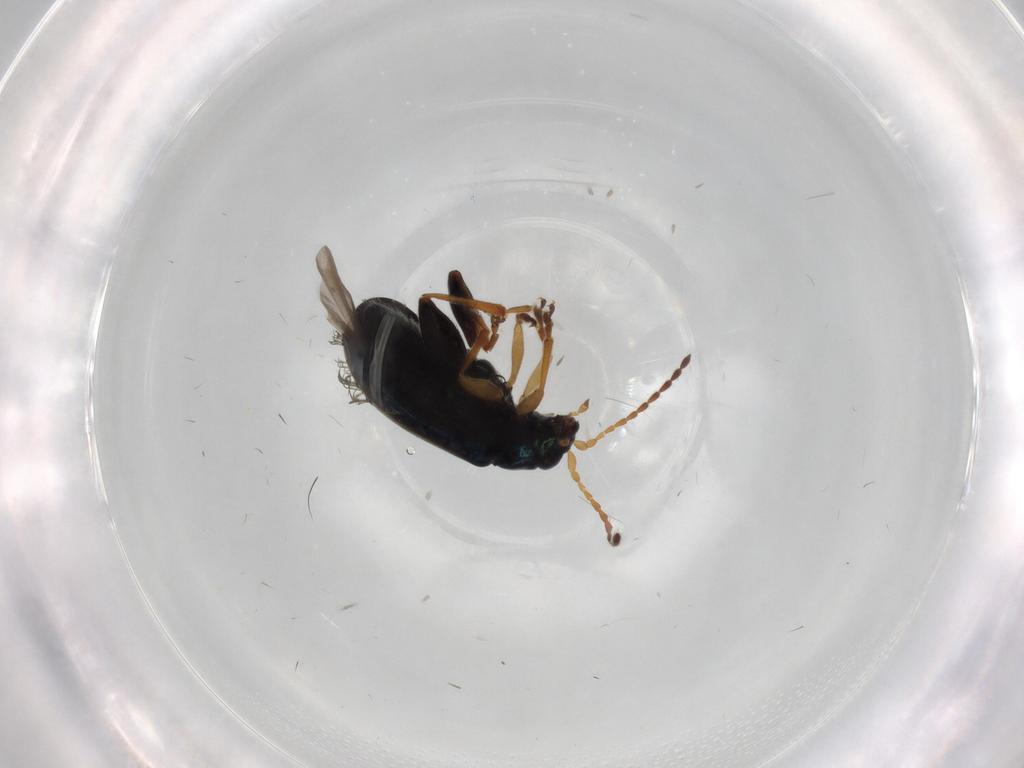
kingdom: Animalia
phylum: Arthropoda
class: Insecta
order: Coleoptera
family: Chrysomelidae
